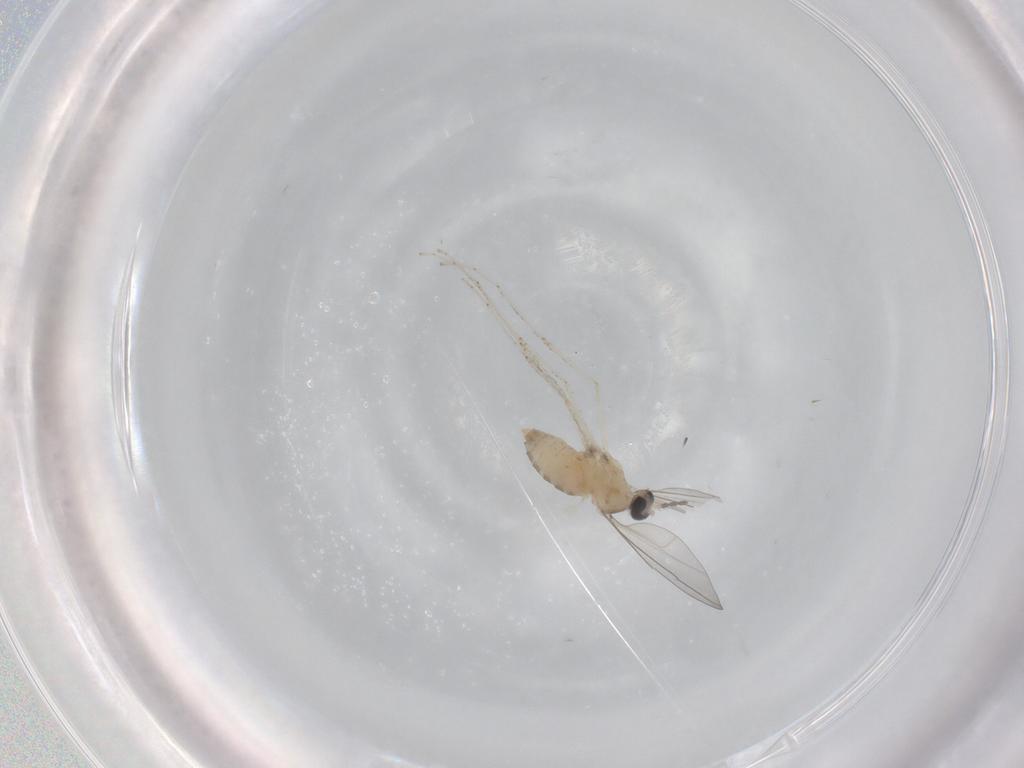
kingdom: Animalia
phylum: Arthropoda
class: Insecta
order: Diptera
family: Cecidomyiidae
